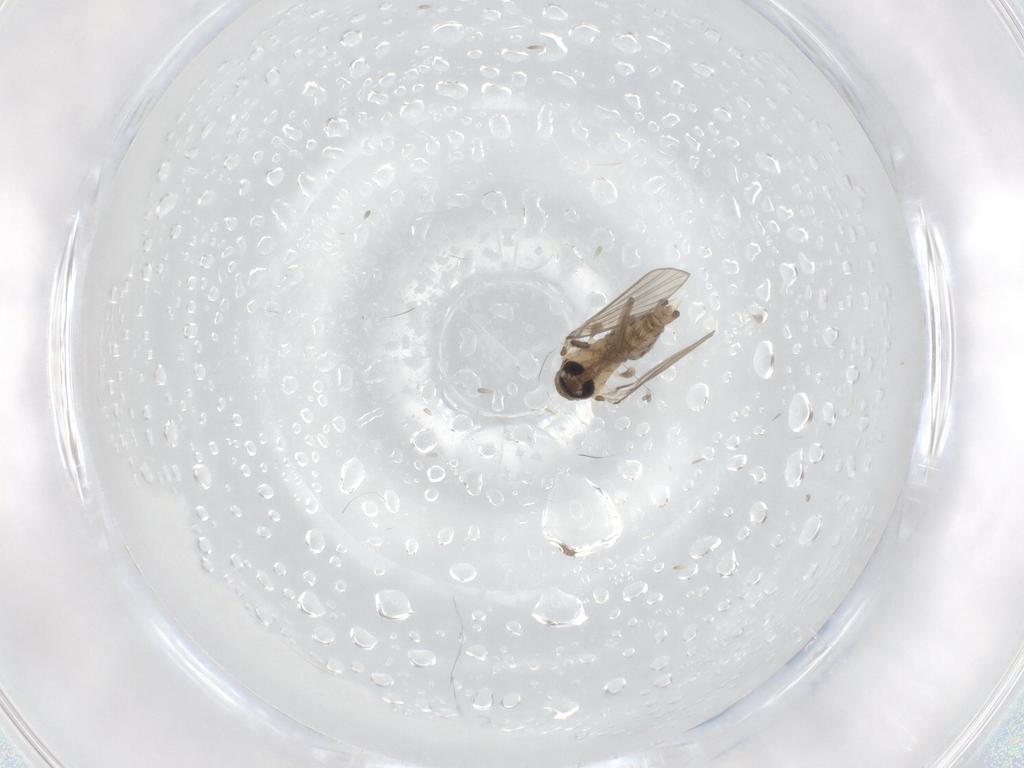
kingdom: Animalia
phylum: Arthropoda
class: Insecta
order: Diptera
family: Drosophilidae
